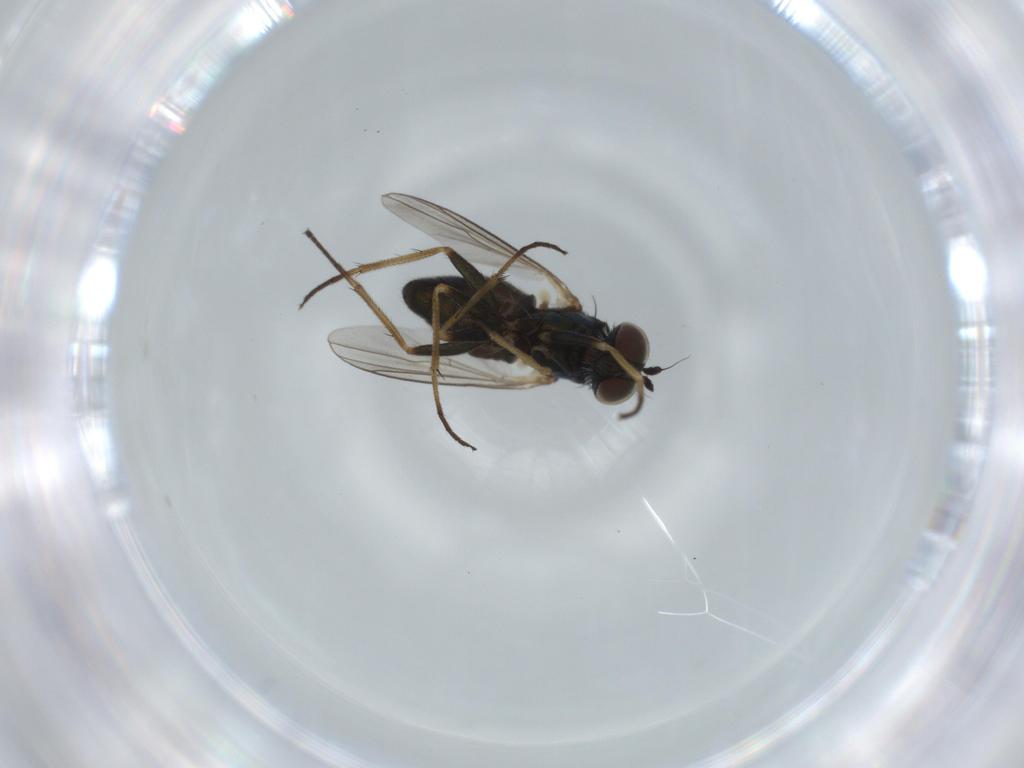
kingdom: Animalia
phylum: Arthropoda
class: Insecta
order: Diptera
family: Dolichopodidae
